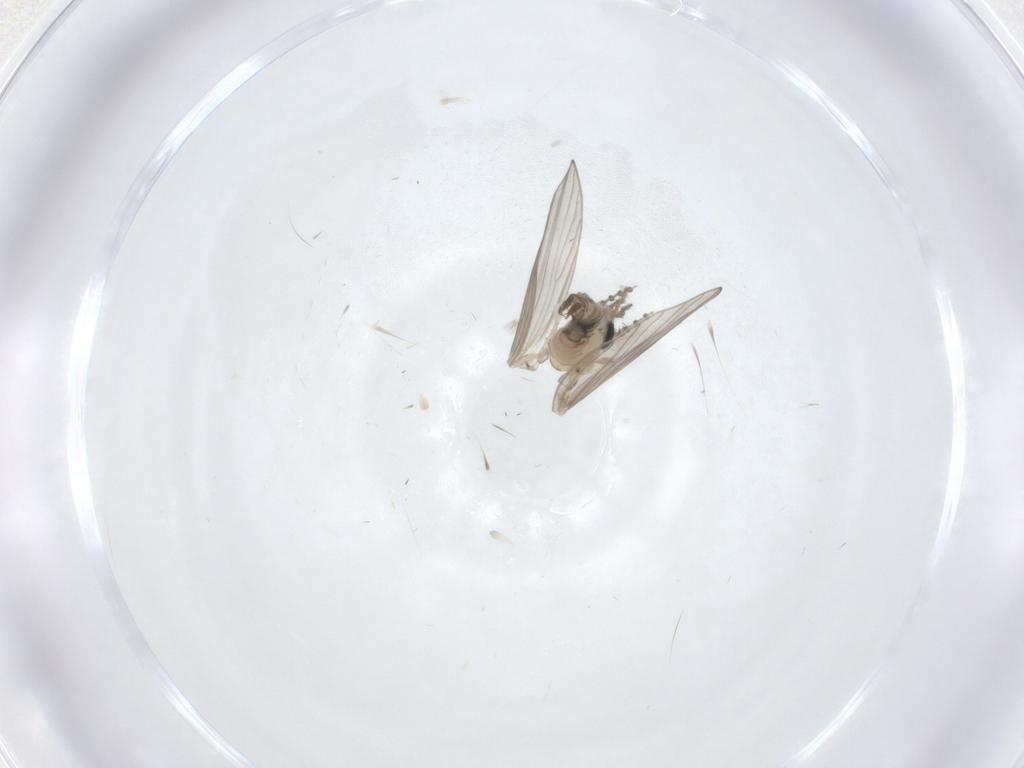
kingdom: Animalia
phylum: Arthropoda
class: Insecta
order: Diptera
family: Psychodidae
